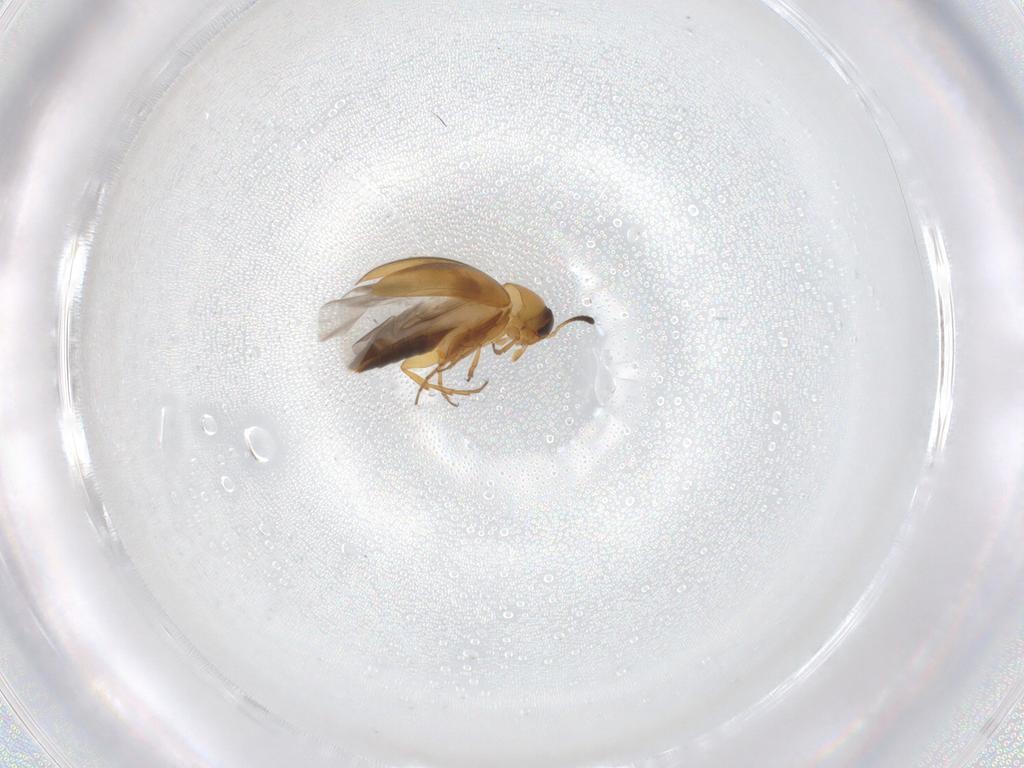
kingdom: Animalia
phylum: Arthropoda
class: Insecta
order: Coleoptera
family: Scraptiidae
